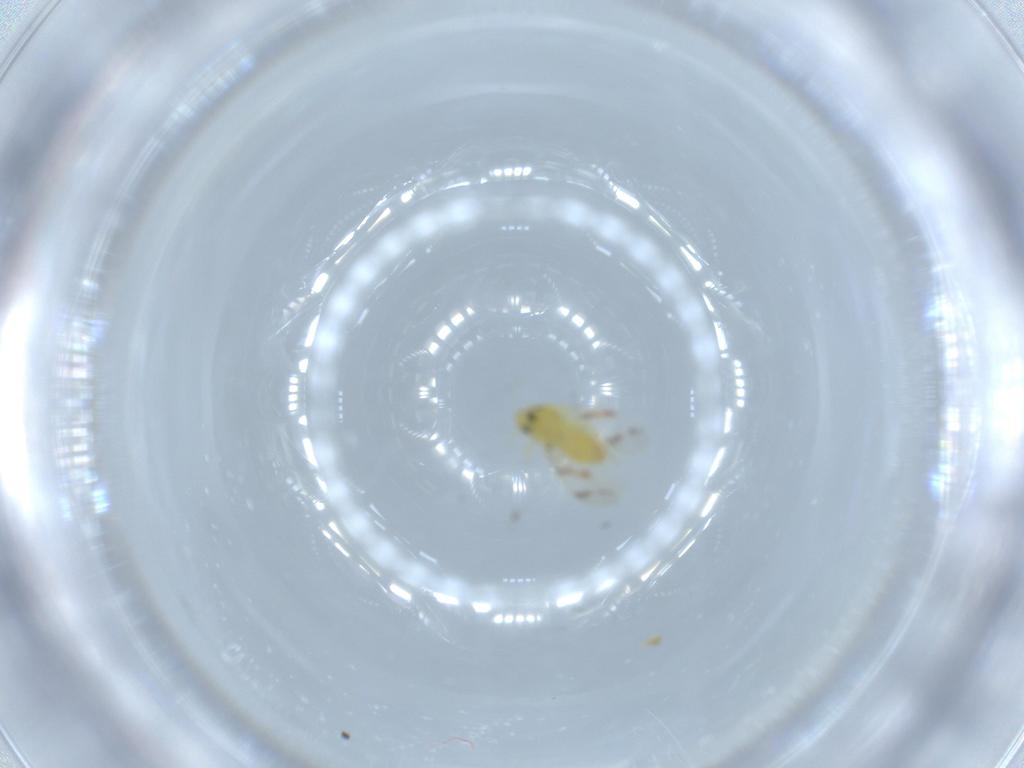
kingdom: Animalia
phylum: Arthropoda
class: Insecta
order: Hemiptera
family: Aleyrodidae
